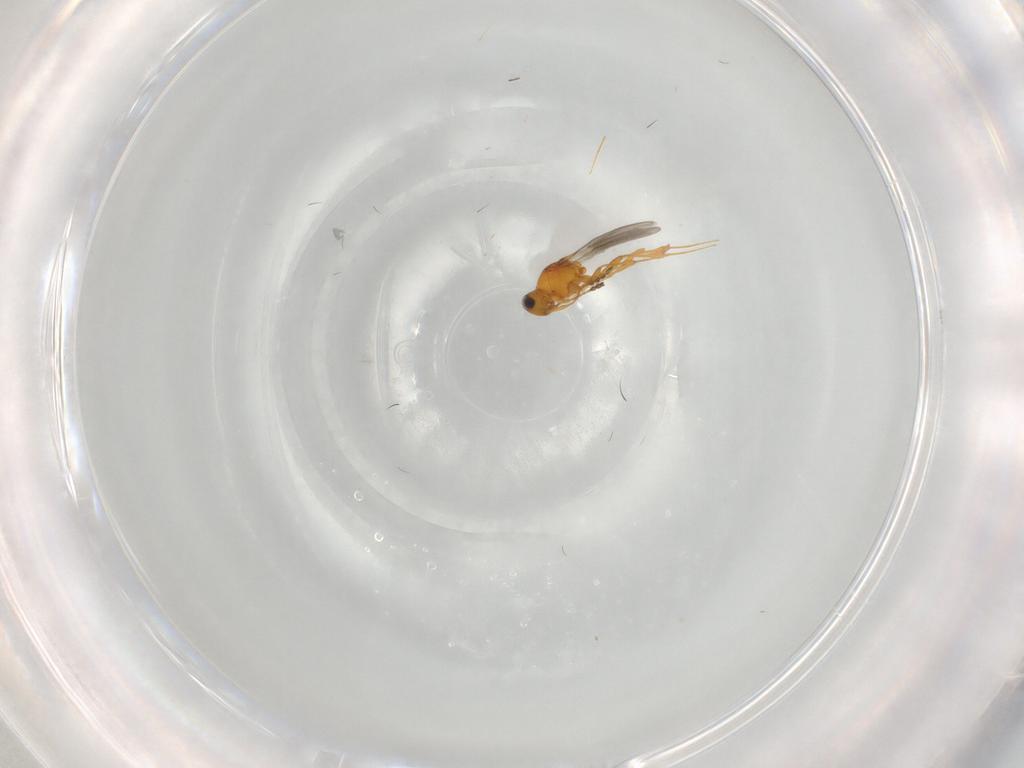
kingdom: Animalia
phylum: Arthropoda
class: Insecta
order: Hymenoptera
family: Platygastridae
